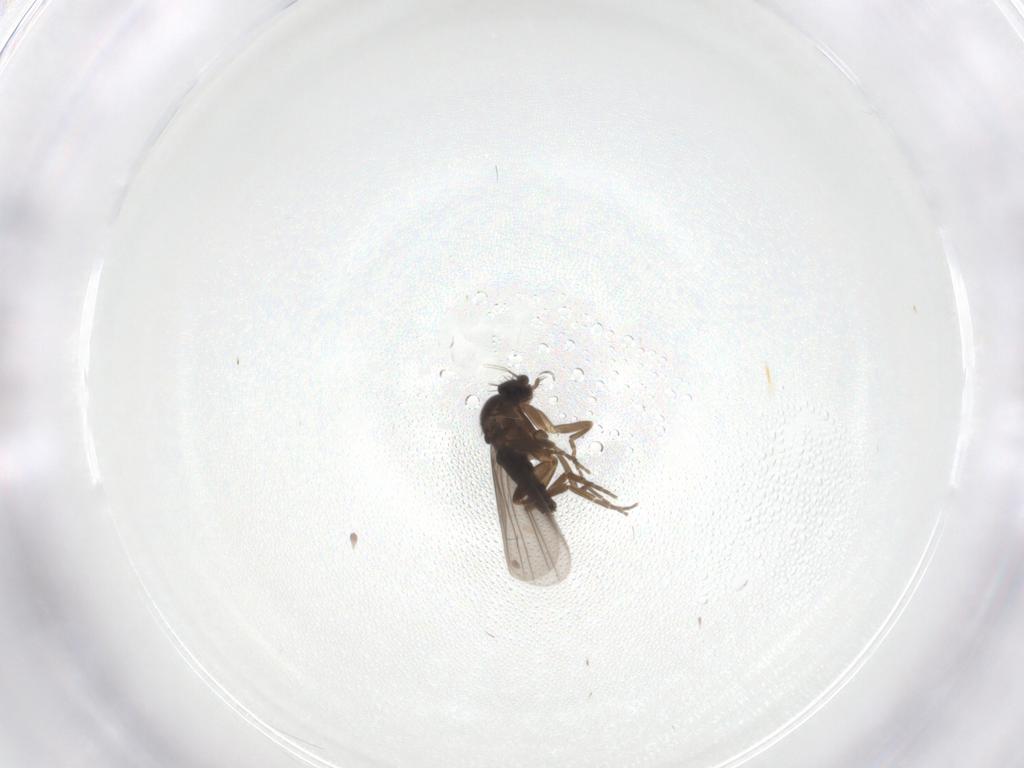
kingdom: Animalia
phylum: Arthropoda
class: Insecta
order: Diptera
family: Phoridae
